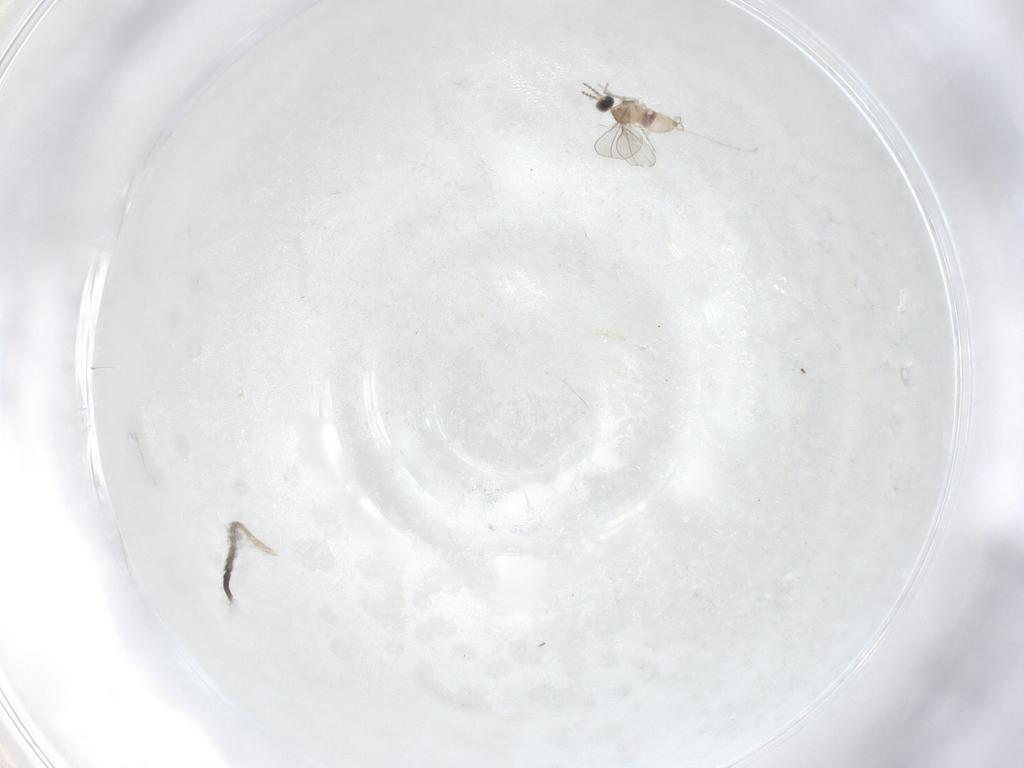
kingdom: Animalia
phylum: Arthropoda
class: Insecta
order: Diptera
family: Cecidomyiidae
